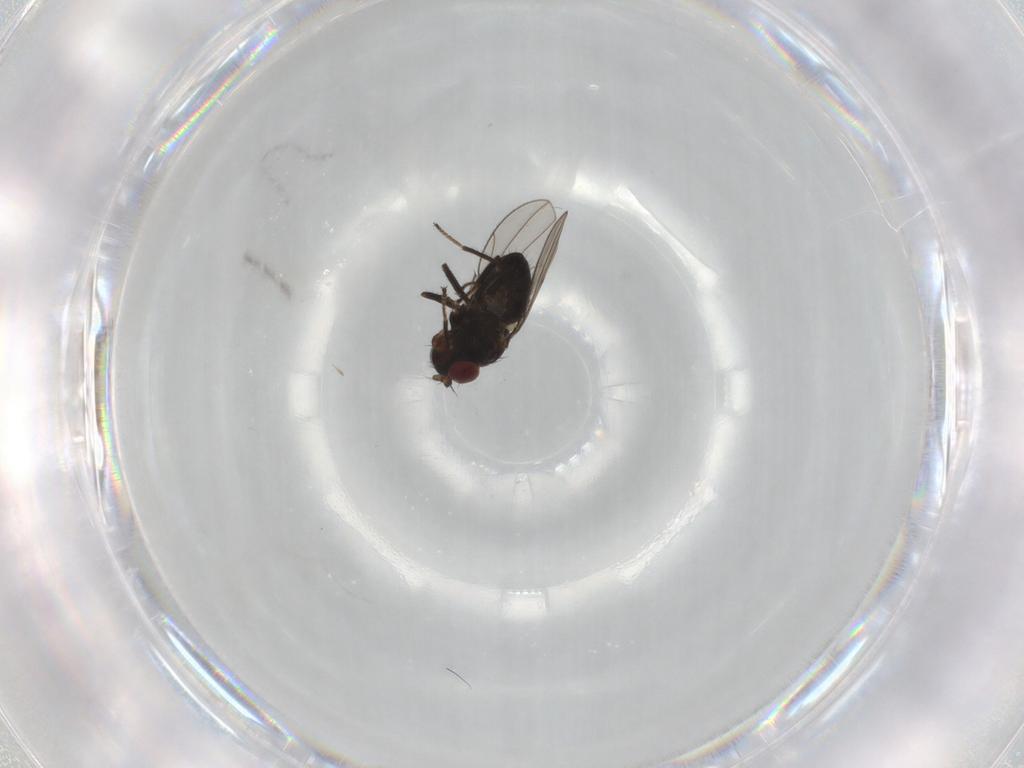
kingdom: Animalia
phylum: Arthropoda
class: Insecta
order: Diptera
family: Ephydridae
